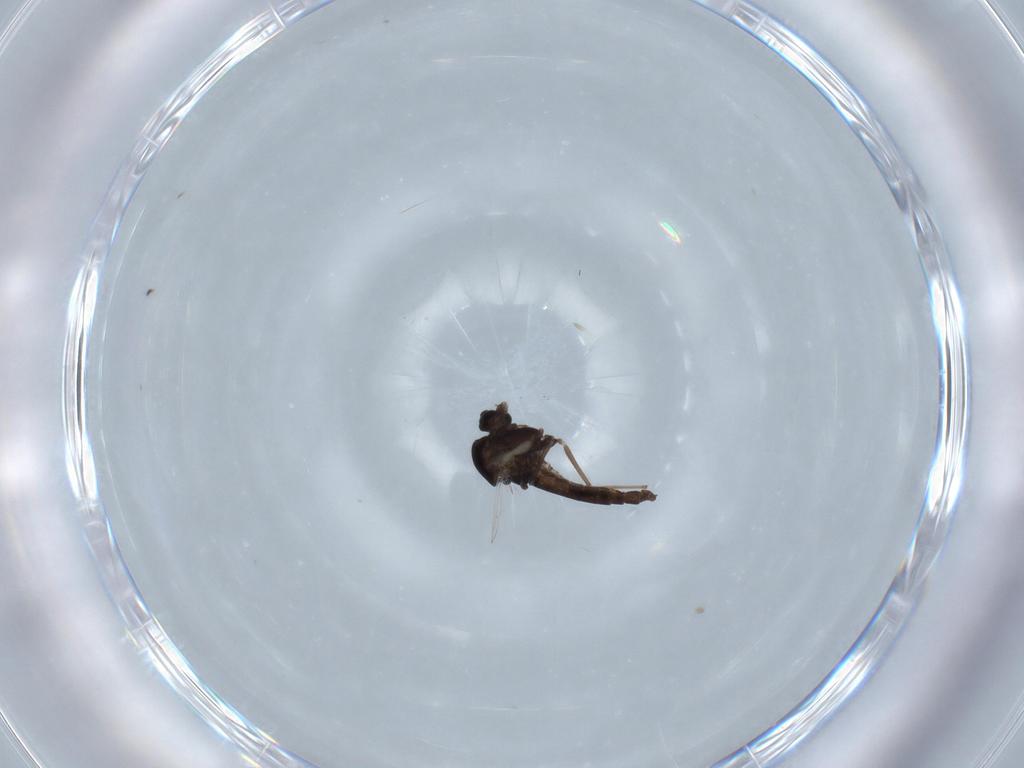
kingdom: Animalia
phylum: Arthropoda
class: Insecta
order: Diptera
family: Chironomidae
